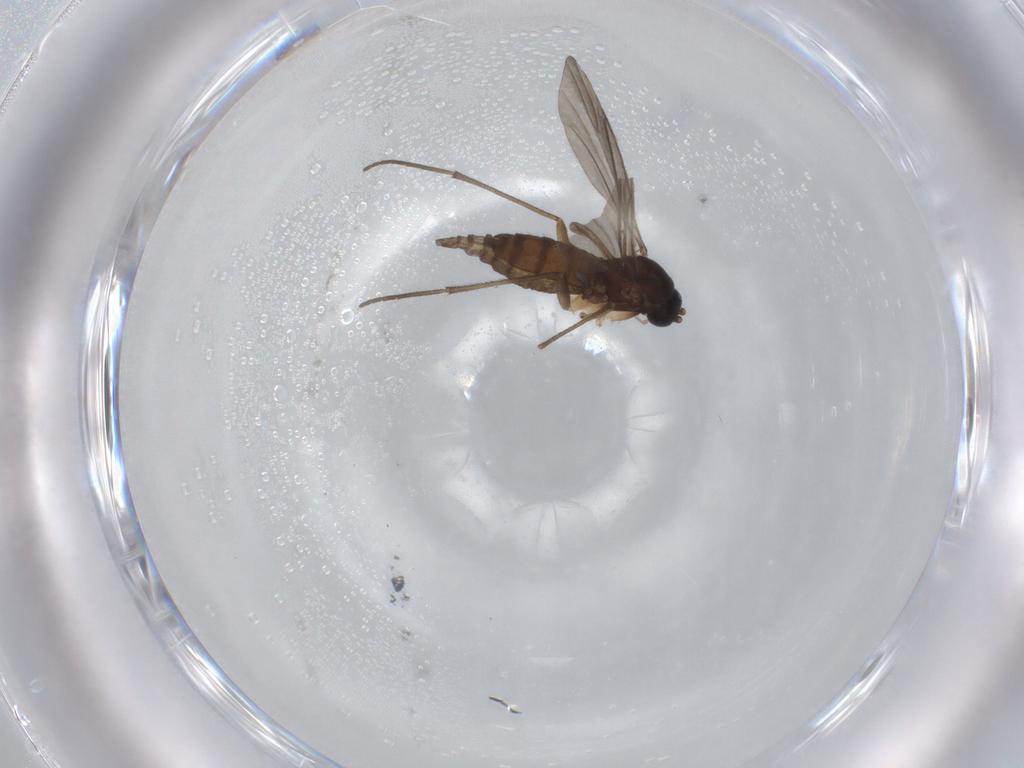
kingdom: Animalia
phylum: Arthropoda
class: Insecta
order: Diptera
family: Sciaridae
